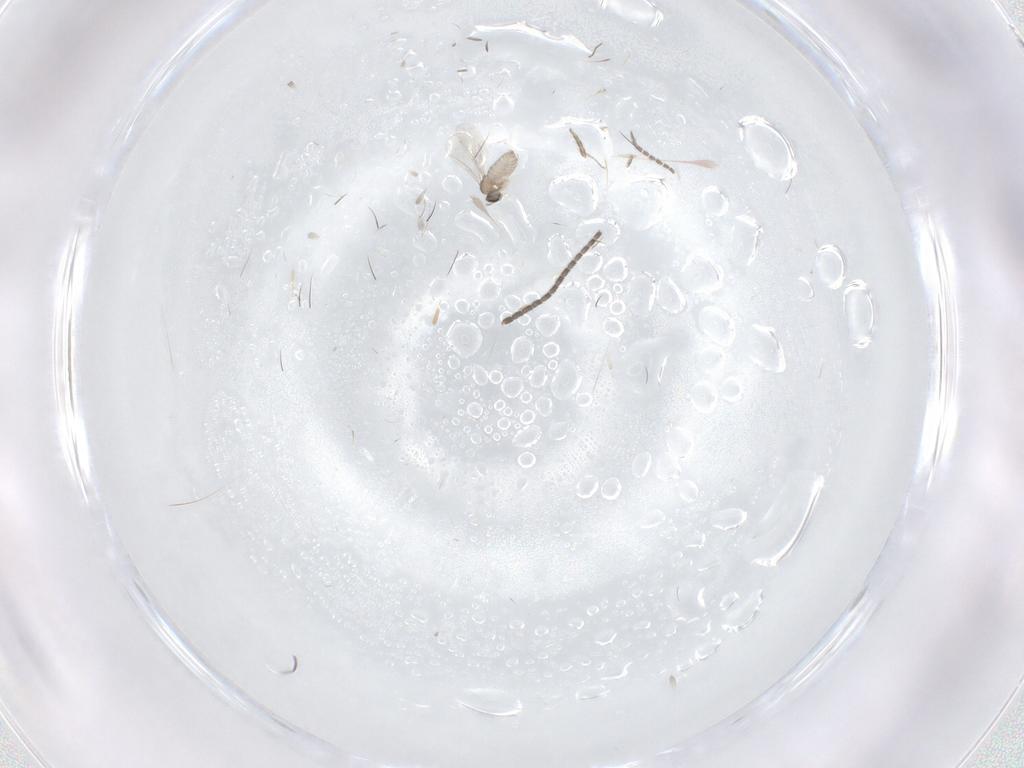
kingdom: Animalia
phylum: Arthropoda
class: Insecta
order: Diptera
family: Cecidomyiidae
